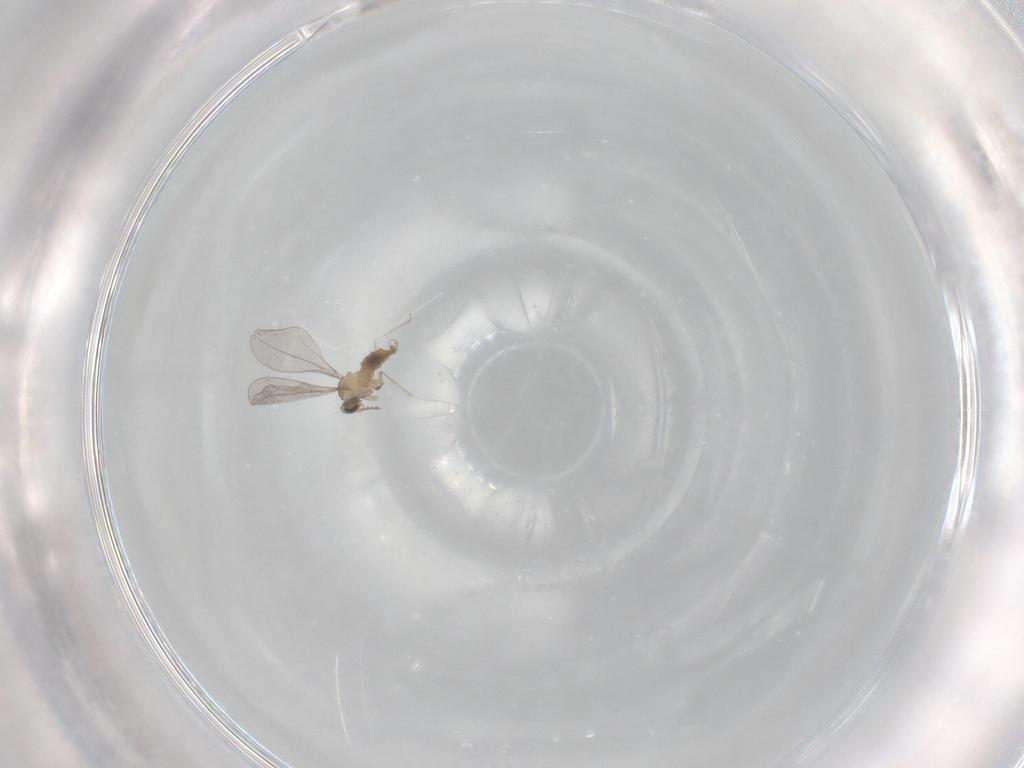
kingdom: Animalia
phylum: Arthropoda
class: Insecta
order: Diptera
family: Cecidomyiidae
